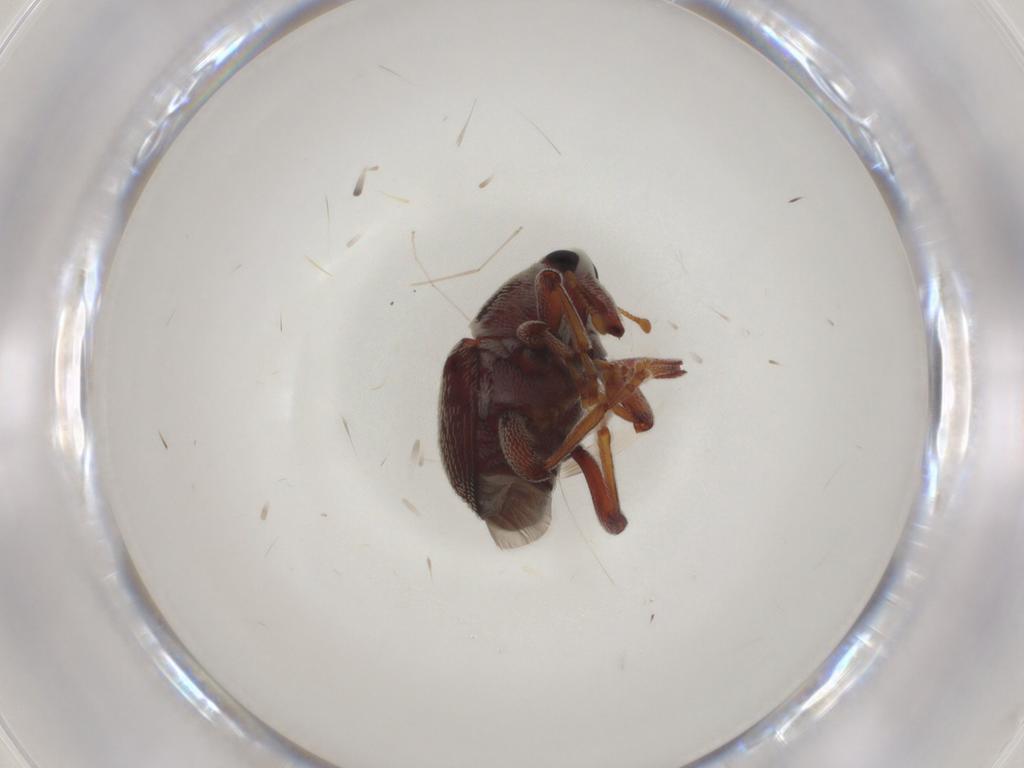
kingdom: Animalia
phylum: Arthropoda
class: Insecta
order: Coleoptera
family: Curculionidae
